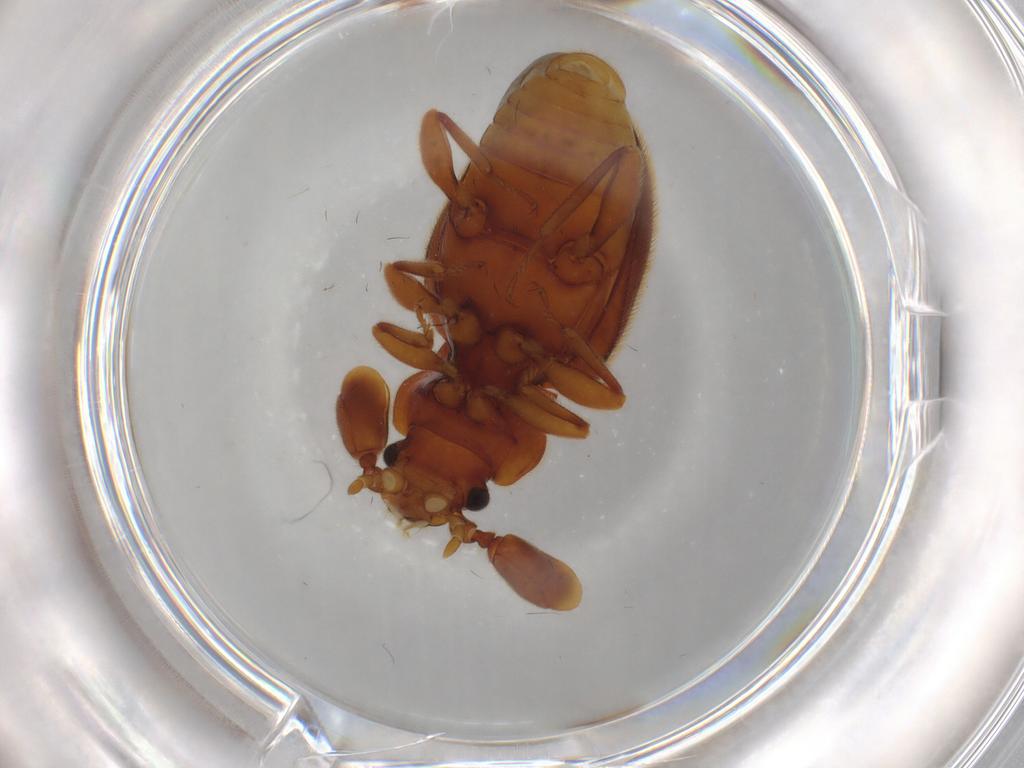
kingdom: Animalia
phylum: Arthropoda
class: Insecta
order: Coleoptera
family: Endomychidae
